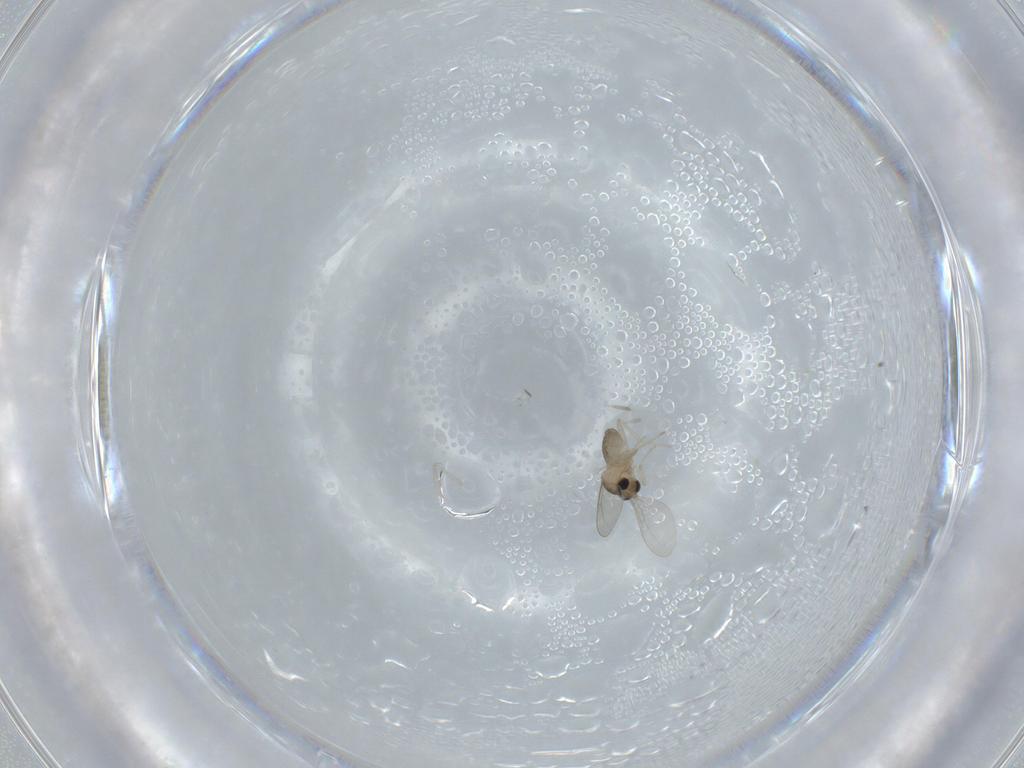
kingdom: Animalia
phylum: Arthropoda
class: Insecta
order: Diptera
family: Cecidomyiidae
